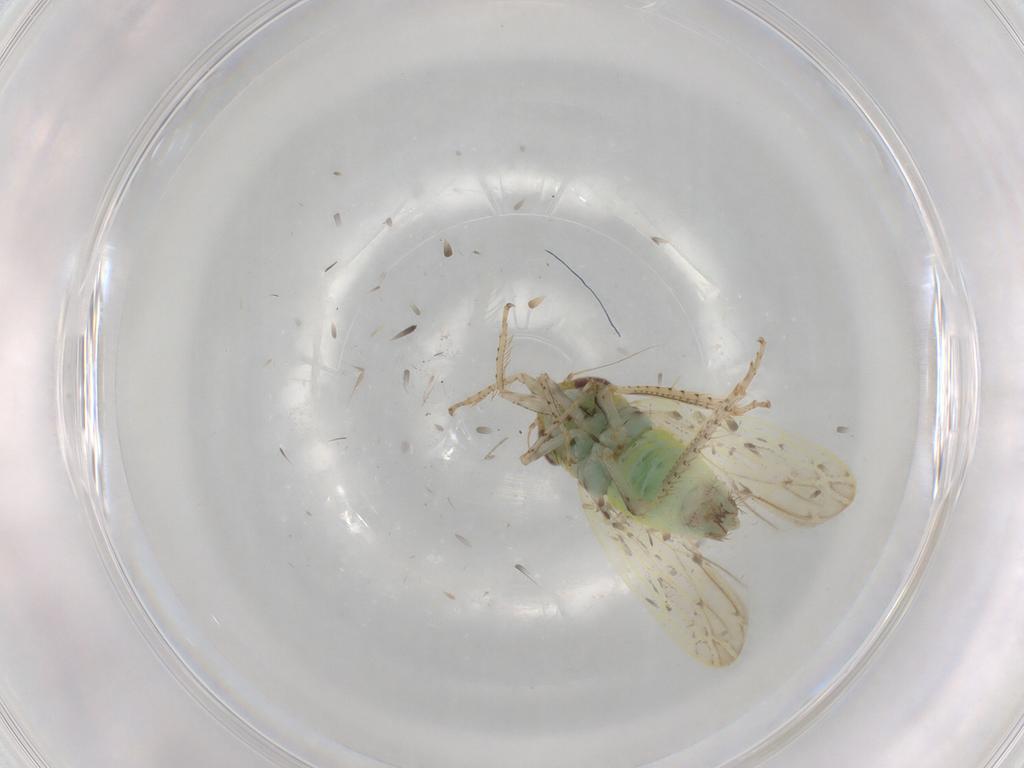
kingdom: Animalia
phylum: Arthropoda
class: Insecta
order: Hemiptera
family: Cicadellidae
